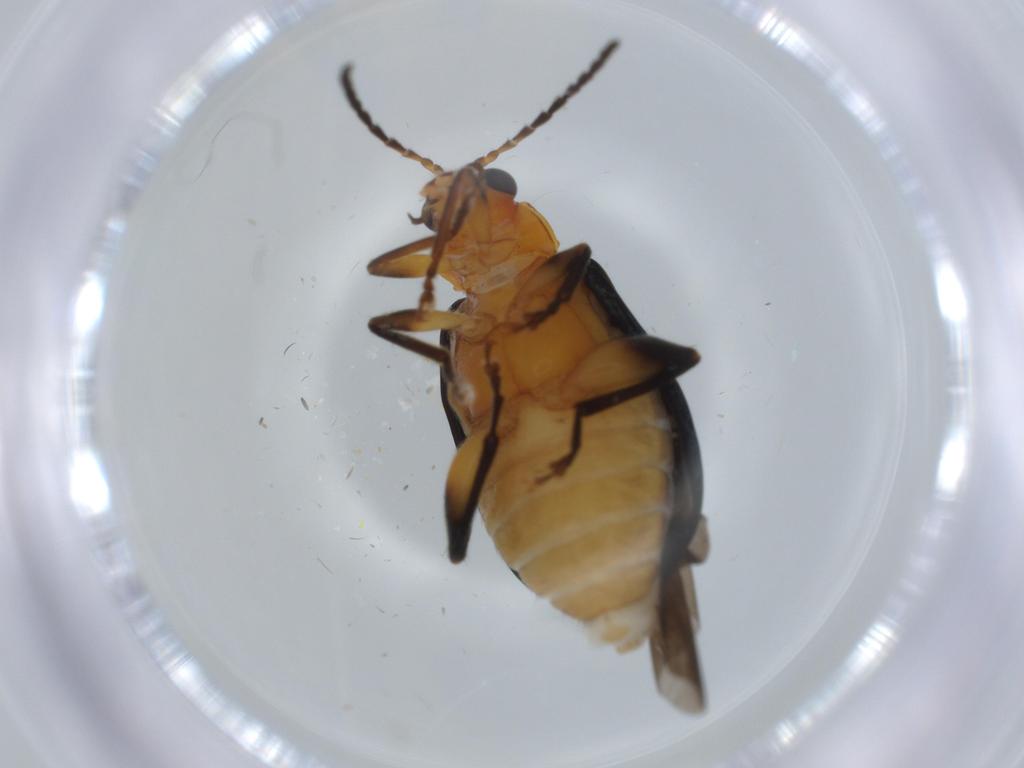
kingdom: Animalia
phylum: Arthropoda
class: Insecta
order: Coleoptera
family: Chrysomelidae
